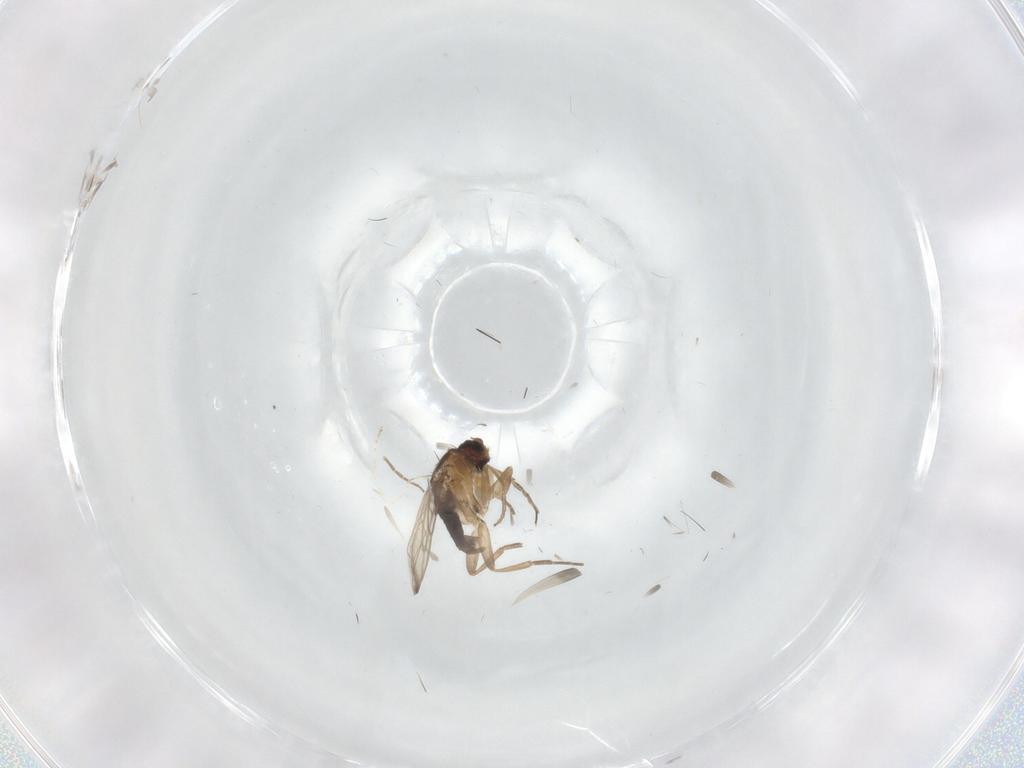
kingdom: Animalia
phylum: Arthropoda
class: Insecta
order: Diptera
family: Phoridae
